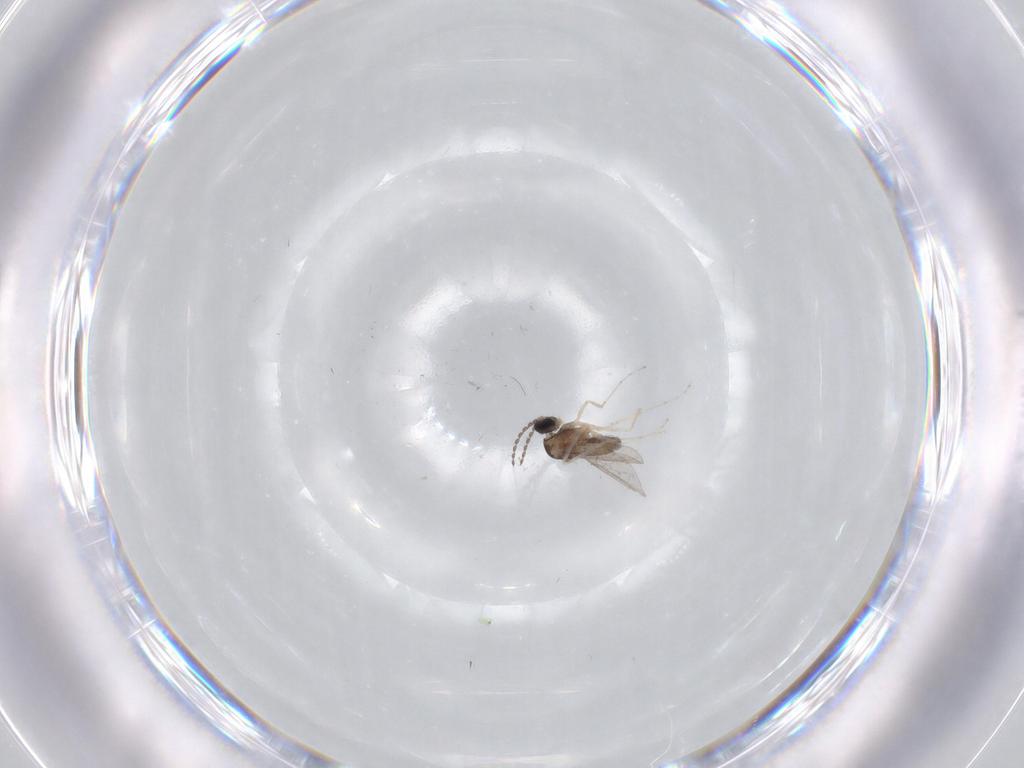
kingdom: Animalia
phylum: Arthropoda
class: Insecta
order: Diptera
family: Cecidomyiidae
